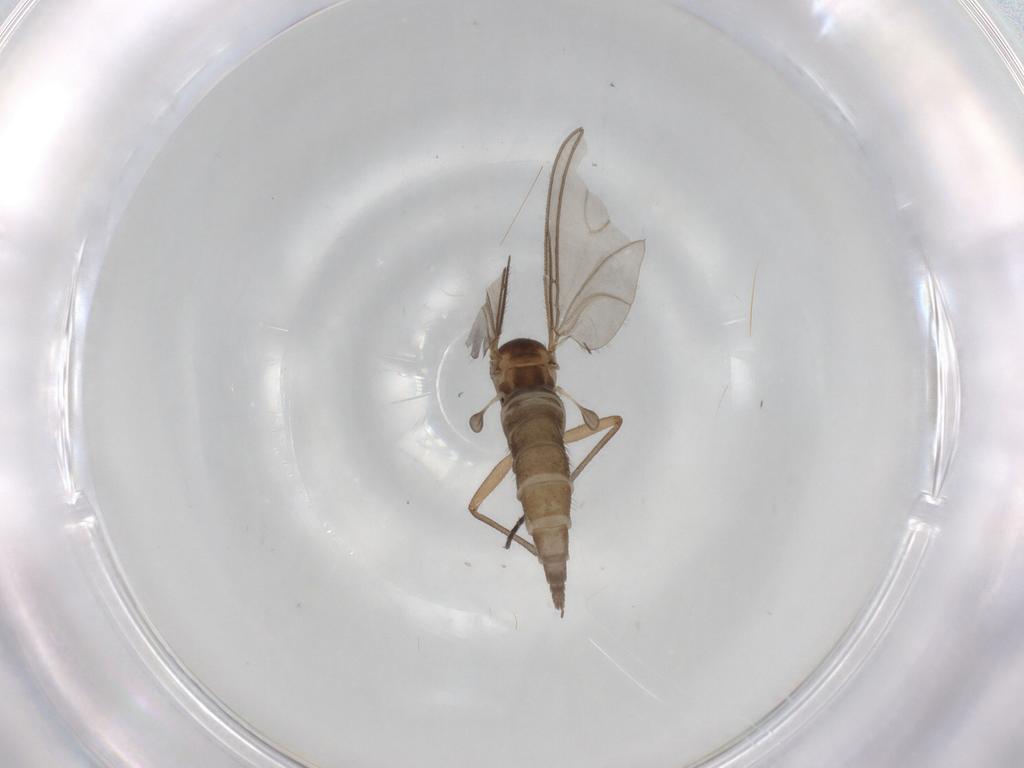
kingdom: Animalia
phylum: Arthropoda
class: Insecta
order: Diptera
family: Sciaridae
